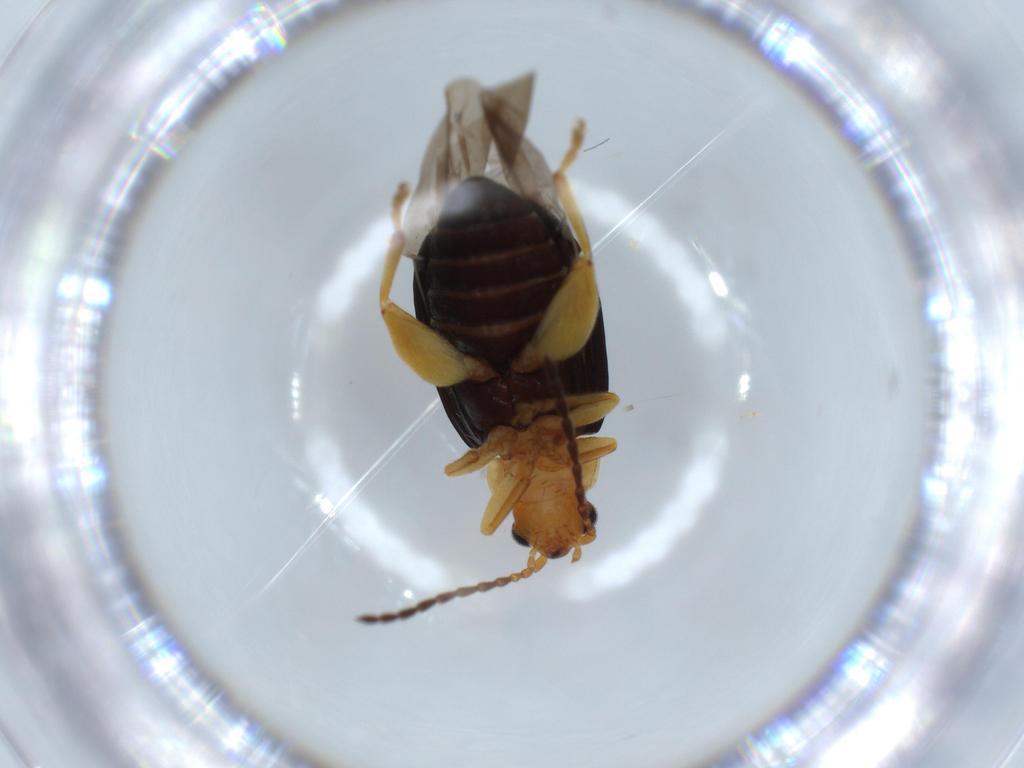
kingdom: Animalia
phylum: Arthropoda
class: Insecta
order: Coleoptera
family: Chrysomelidae
